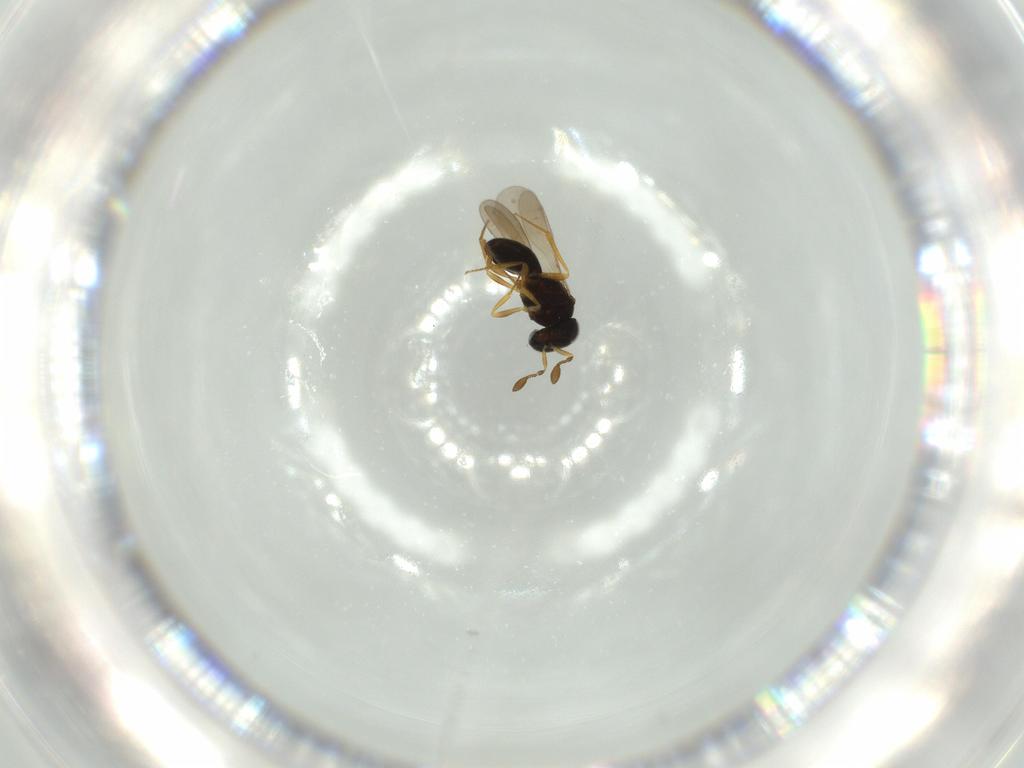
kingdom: Animalia
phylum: Arthropoda
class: Insecta
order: Hymenoptera
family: Scelionidae
